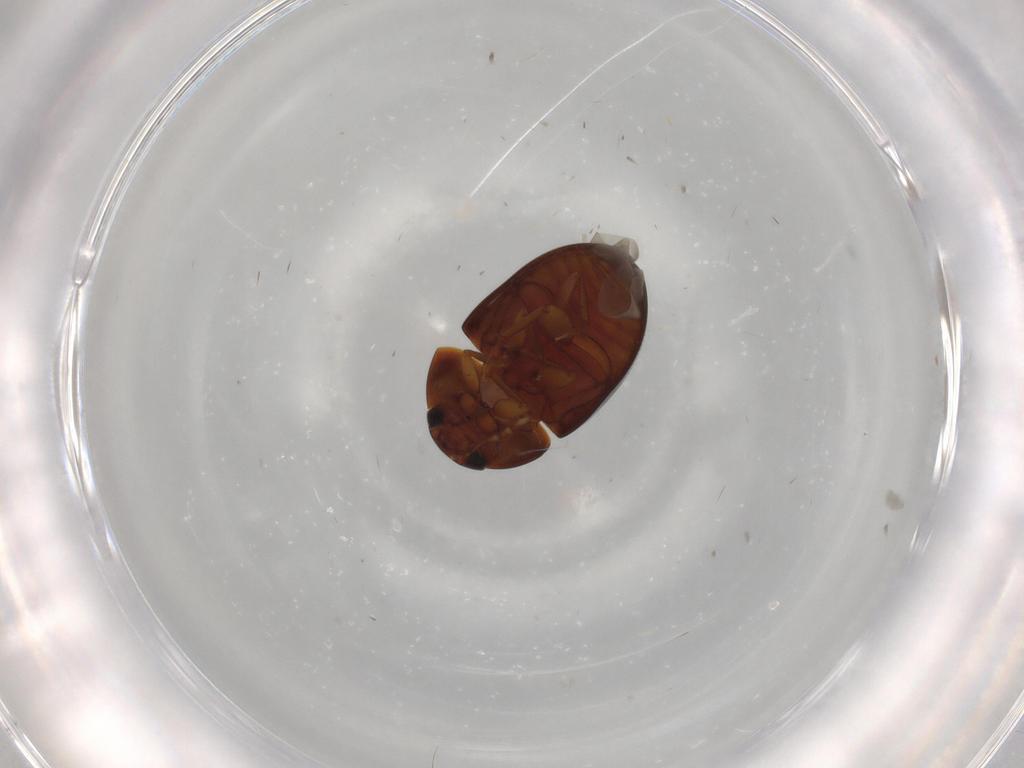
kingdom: Animalia
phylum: Arthropoda
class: Insecta
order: Coleoptera
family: Phalacridae
